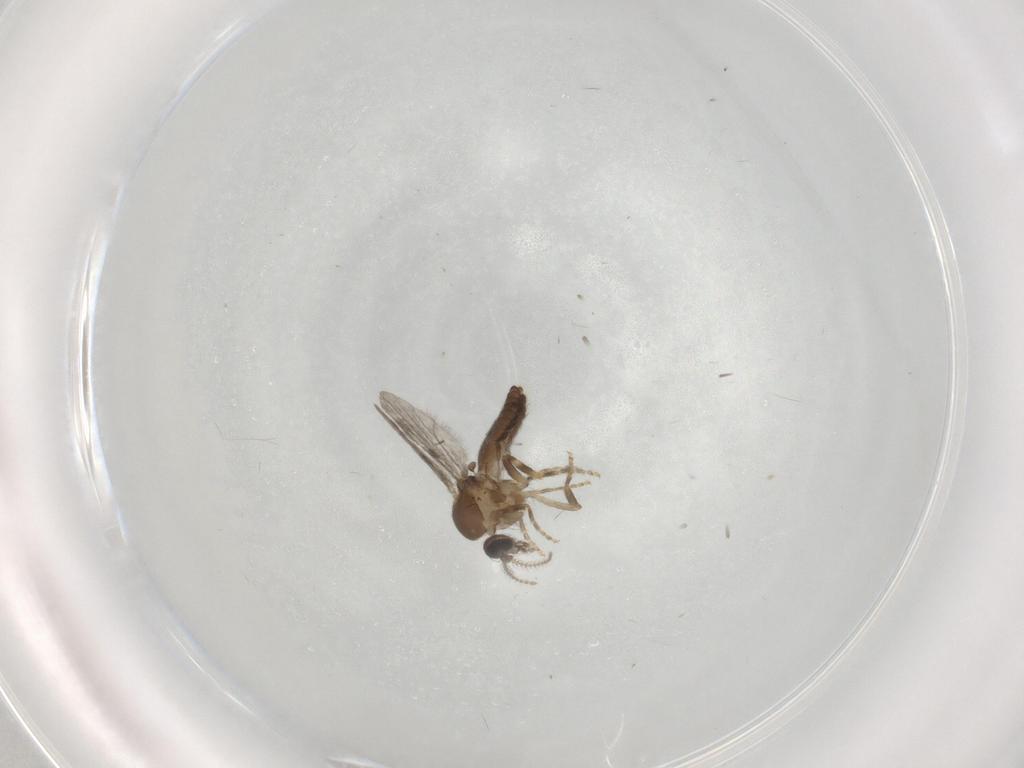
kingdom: Animalia
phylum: Arthropoda
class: Insecta
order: Diptera
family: Ceratopogonidae
